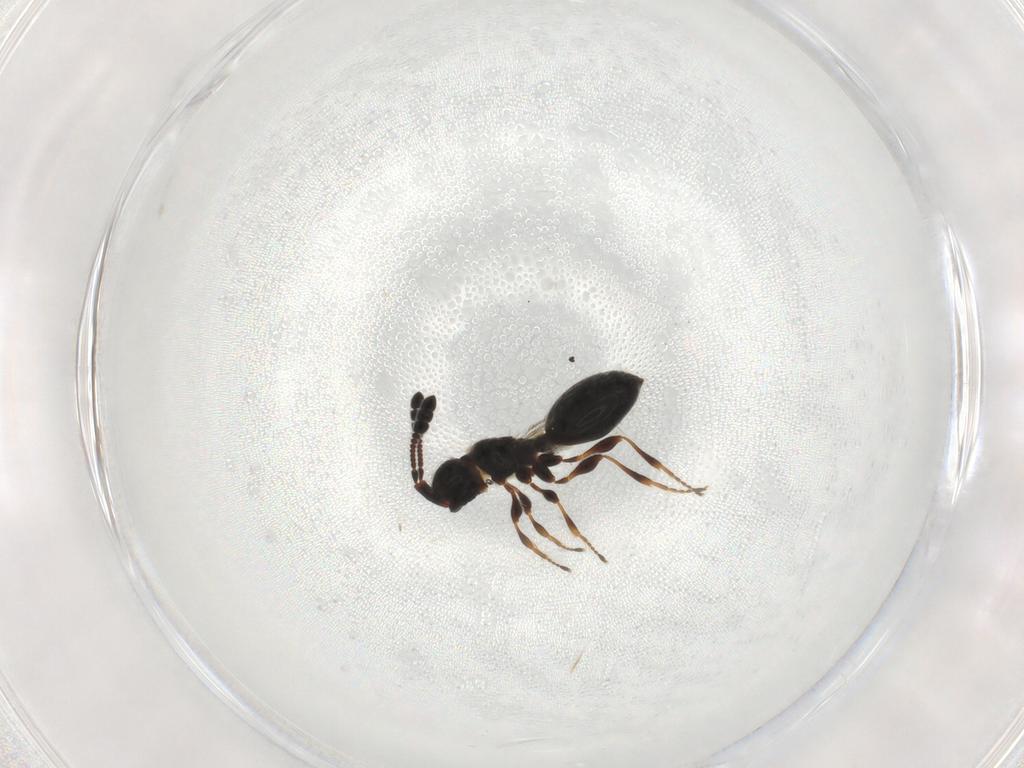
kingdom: Animalia
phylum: Arthropoda
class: Insecta
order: Hymenoptera
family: Diapriidae
